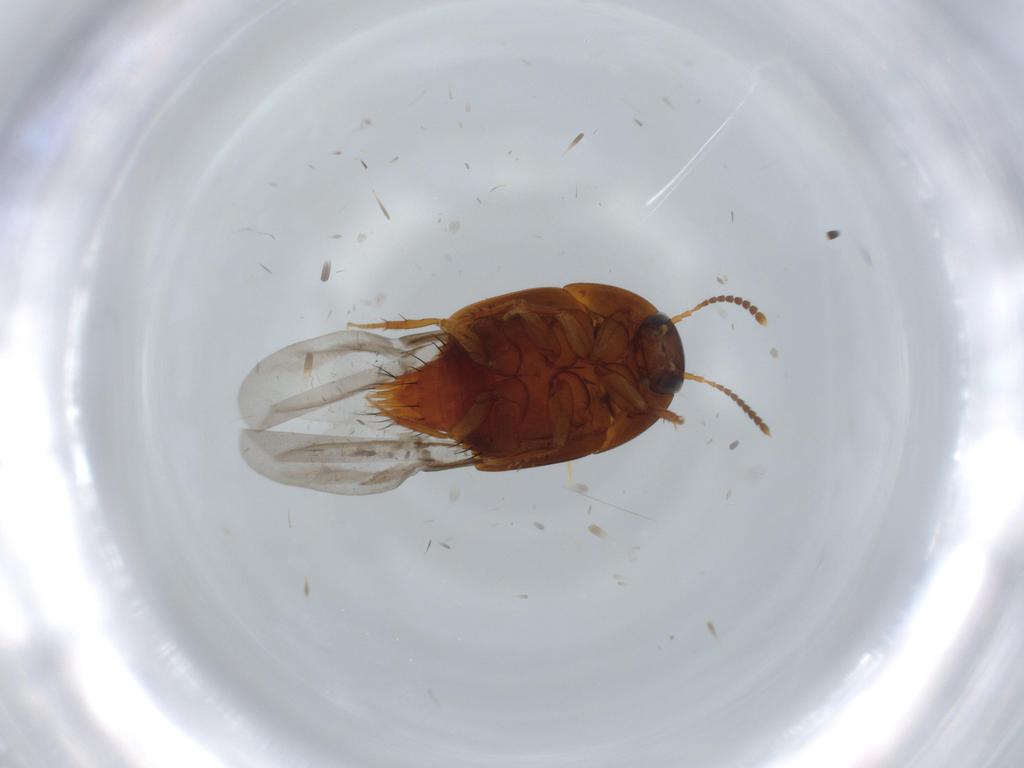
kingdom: Animalia
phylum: Arthropoda
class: Insecta
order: Coleoptera
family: Staphylinidae
